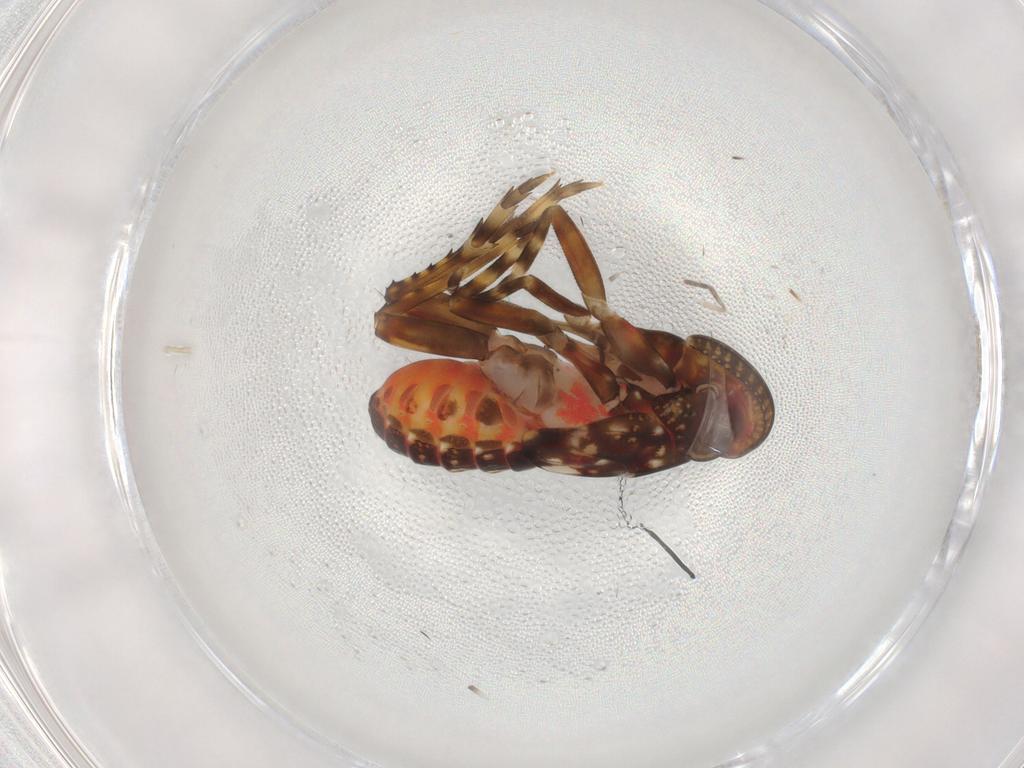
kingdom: Animalia
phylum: Arthropoda
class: Insecta
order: Hemiptera
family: Delphacidae
